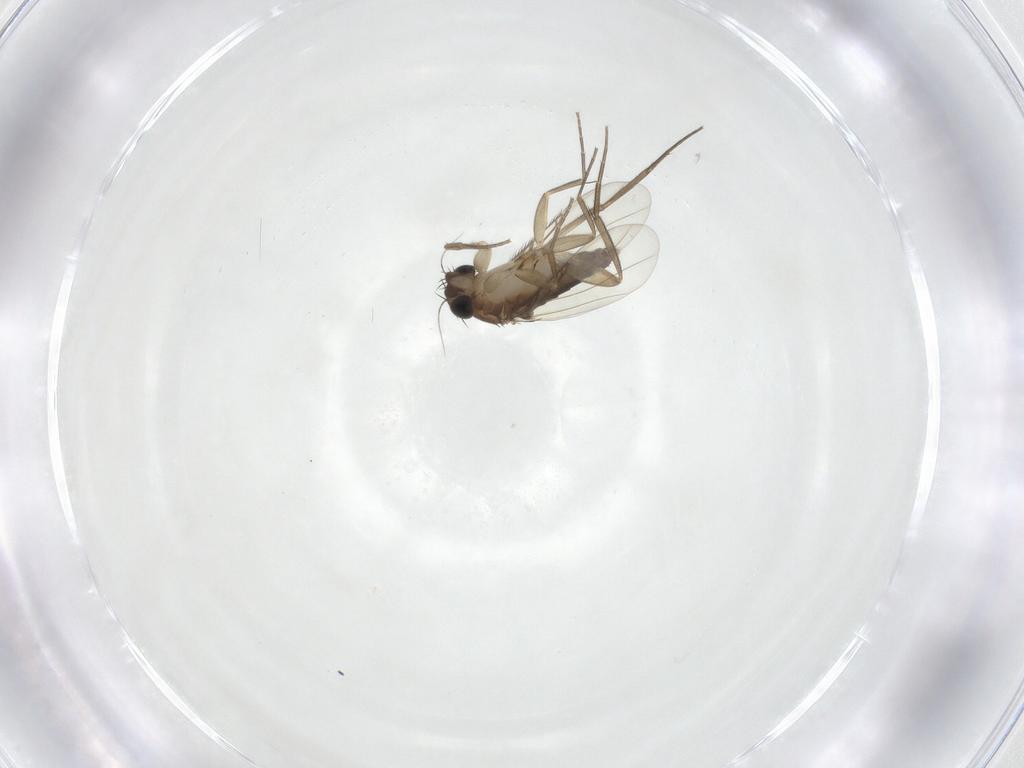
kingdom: Animalia
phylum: Arthropoda
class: Insecta
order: Diptera
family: Phoridae
